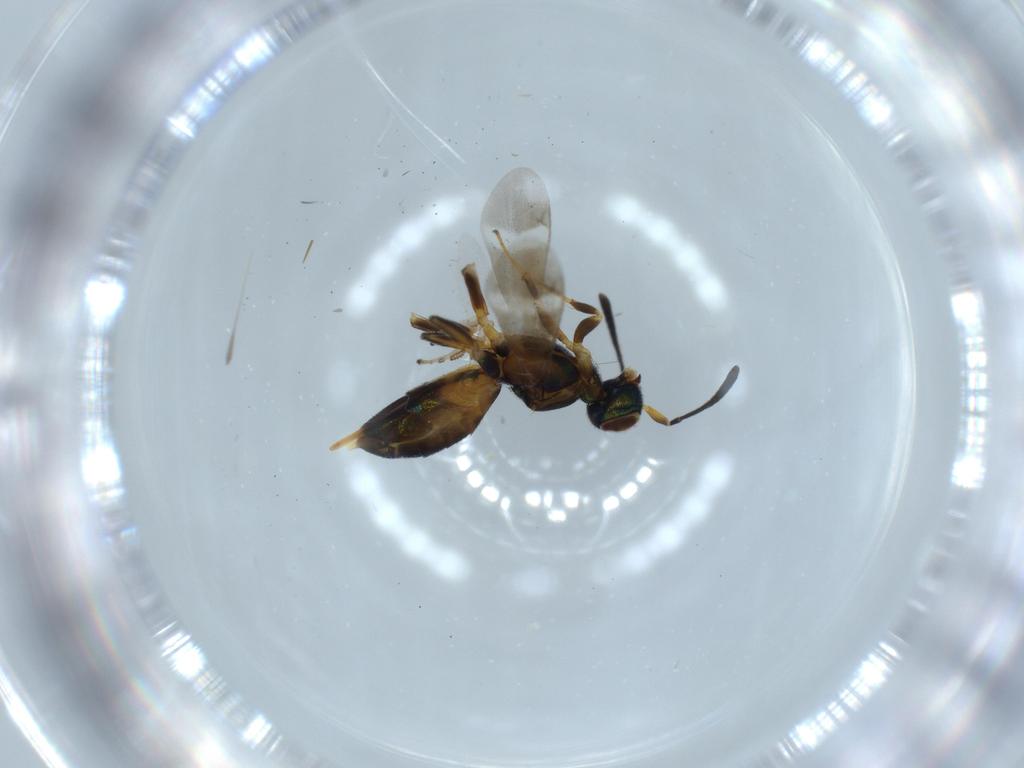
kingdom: Animalia
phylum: Arthropoda
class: Insecta
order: Hymenoptera
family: Eupelmidae
